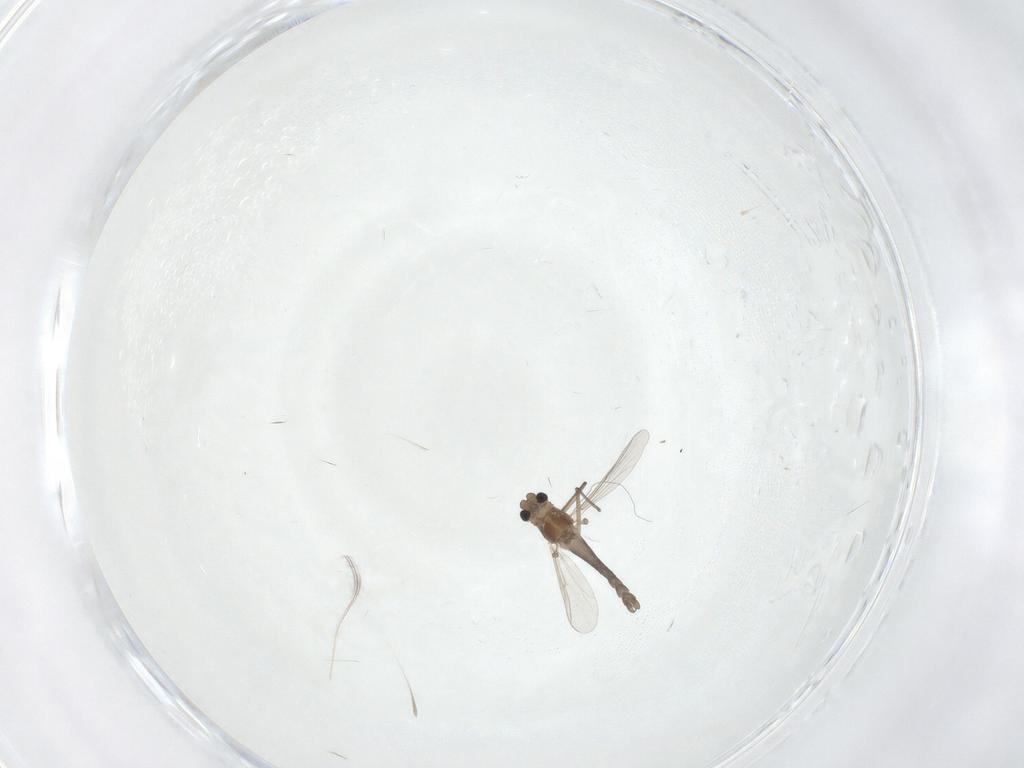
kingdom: Animalia
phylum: Arthropoda
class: Insecta
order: Diptera
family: Chironomidae
